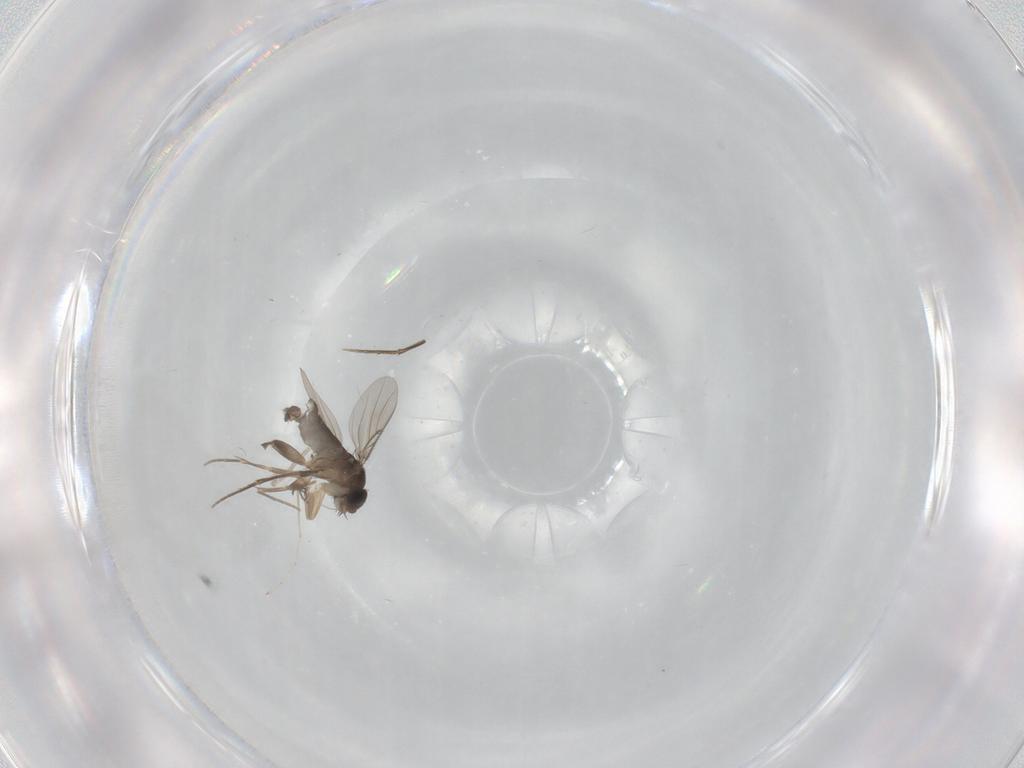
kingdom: Animalia
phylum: Arthropoda
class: Insecta
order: Diptera
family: Phoridae
